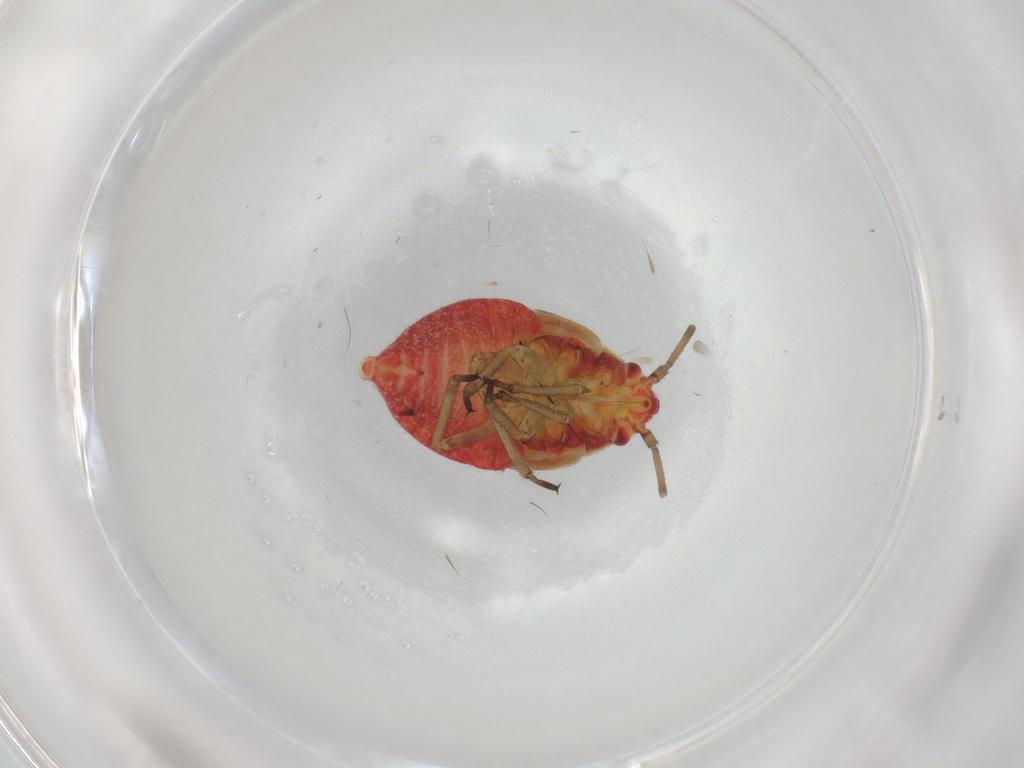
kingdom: Animalia
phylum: Arthropoda
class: Insecta
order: Hemiptera
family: Miridae
